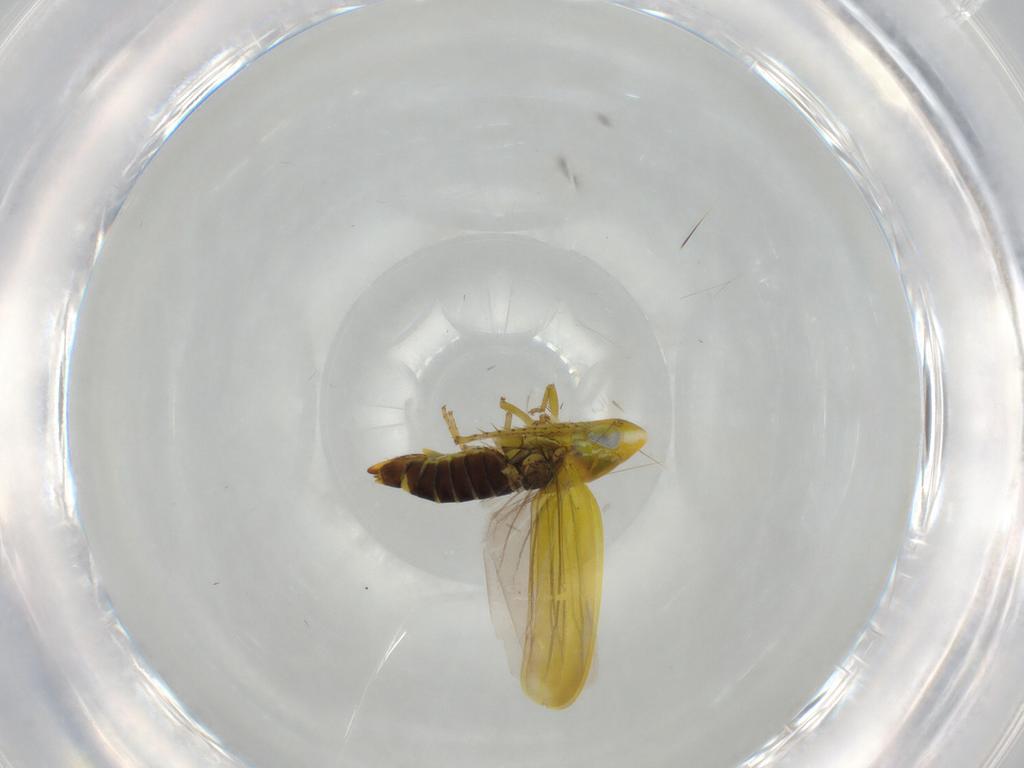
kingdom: Animalia
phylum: Arthropoda
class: Insecta
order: Hemiptera
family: Cicadellidae
